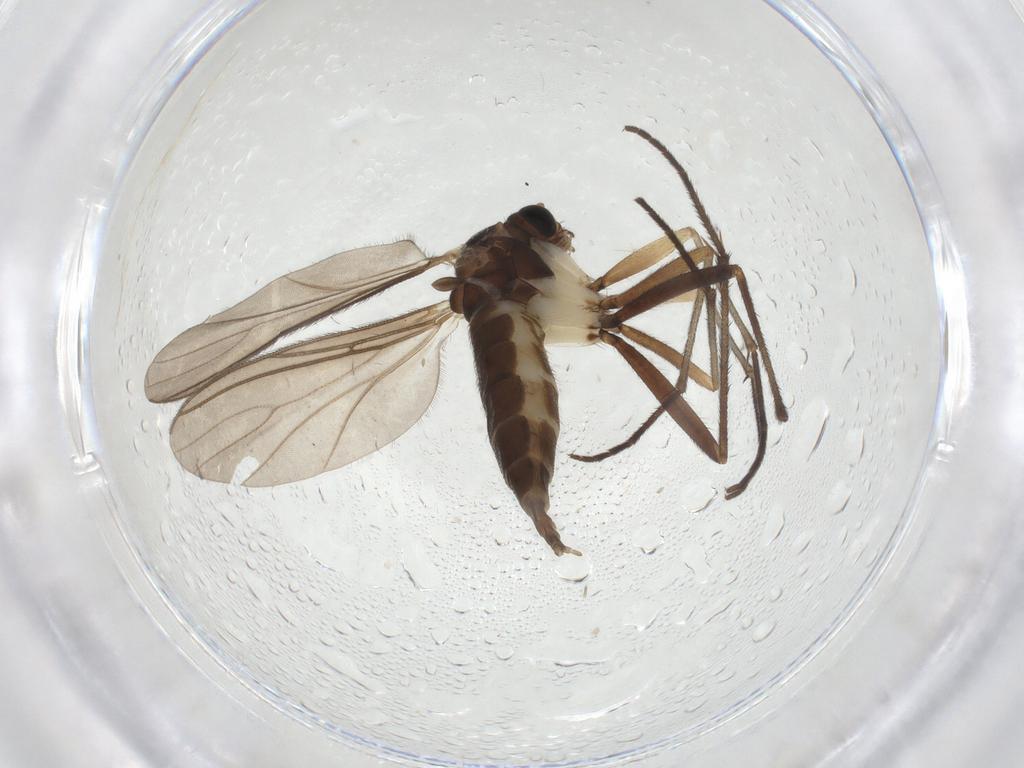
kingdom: Animalia
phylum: Arthropoda
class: Insecta
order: Diptera
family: Sciaridae
